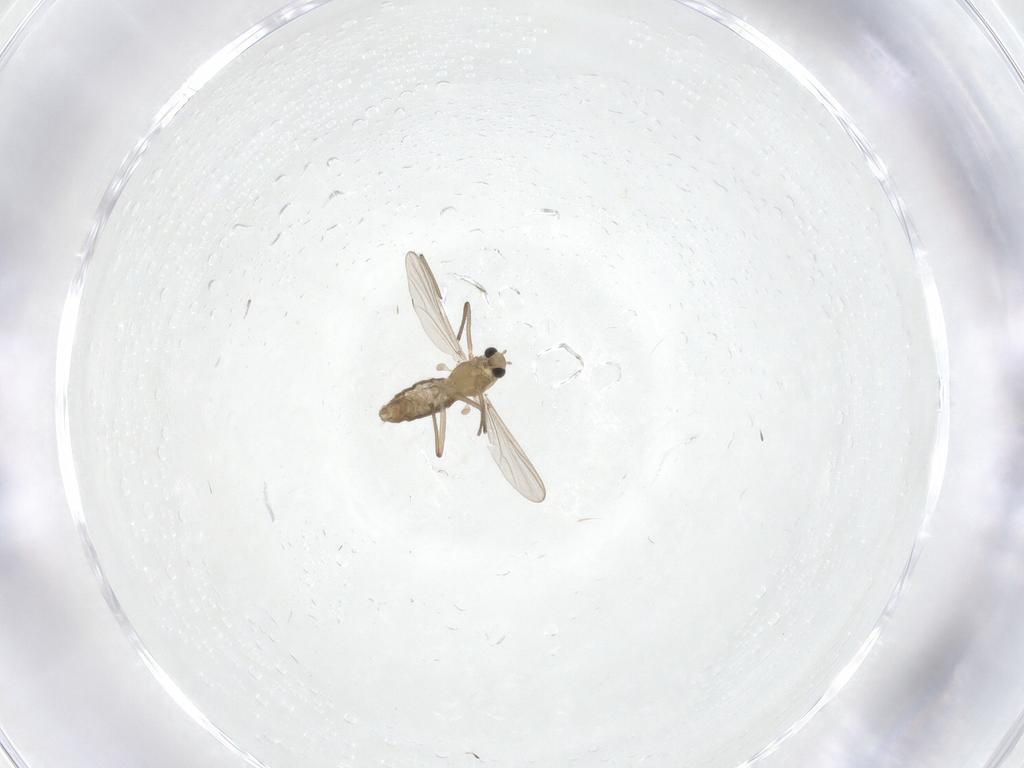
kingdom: Animalia
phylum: Arthropoda
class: Insecta
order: Diptera
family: Chironomidae
